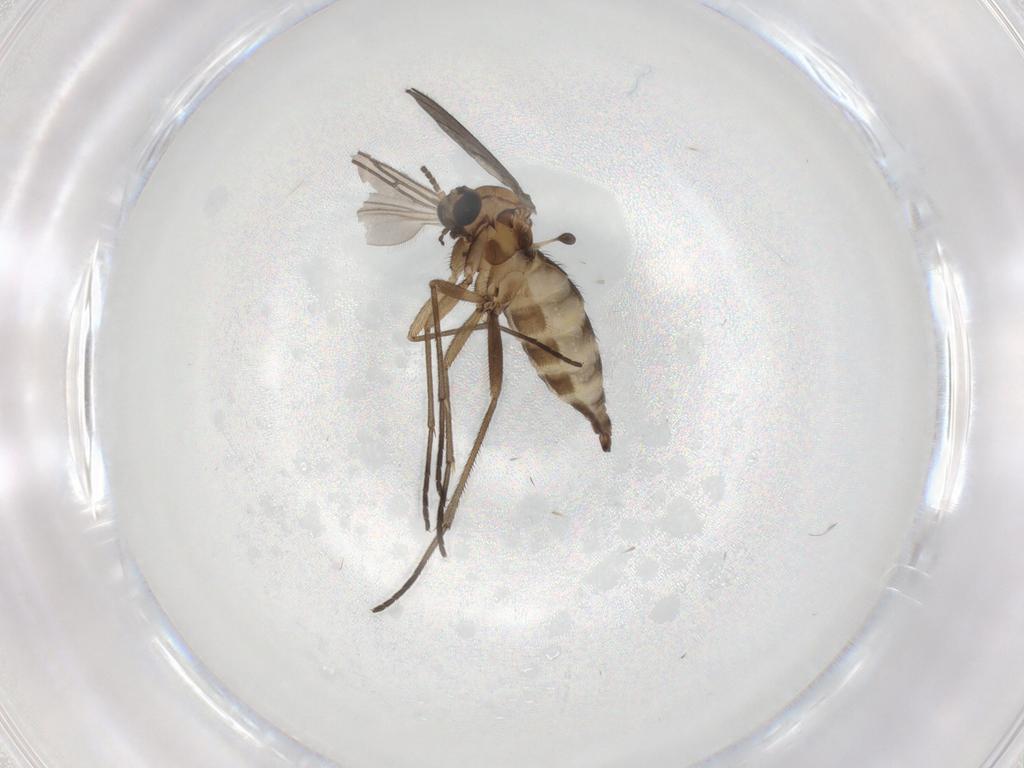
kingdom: Animalia
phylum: Arthropoda
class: Insecta
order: Diptera
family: Sciaridae
